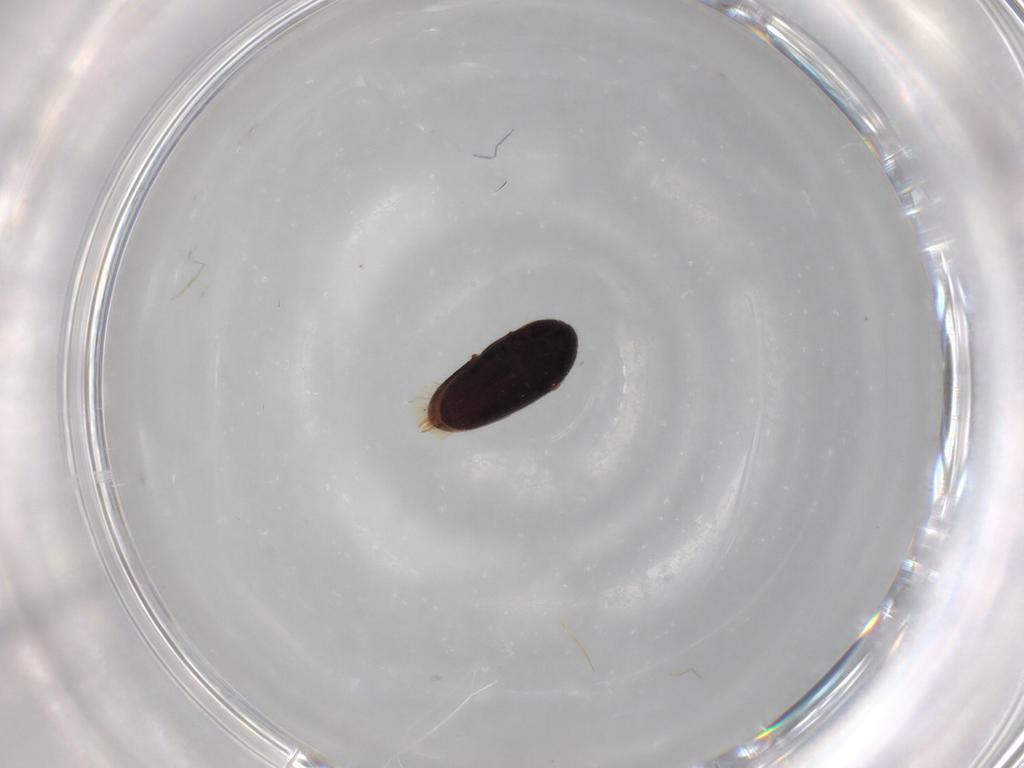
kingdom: Animalia
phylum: Arthropoda
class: Insecta
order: Coleoptera
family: Throscidae
